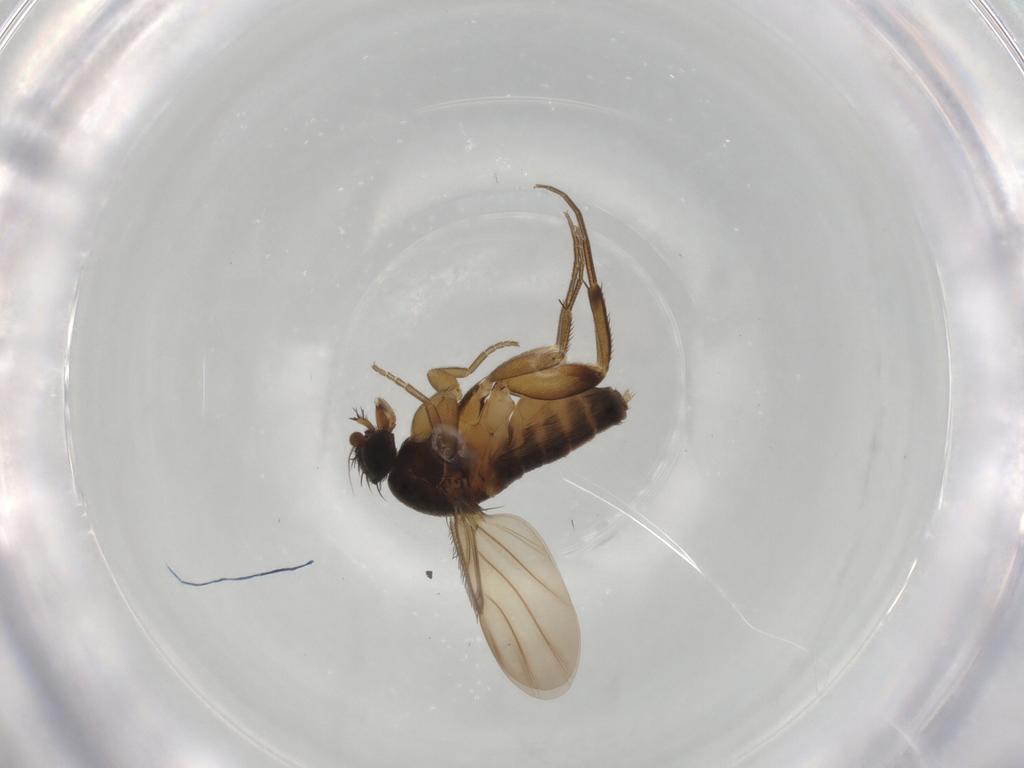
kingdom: Animalia
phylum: Arthropoda
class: Insecta
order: Diptera
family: Phoridae
